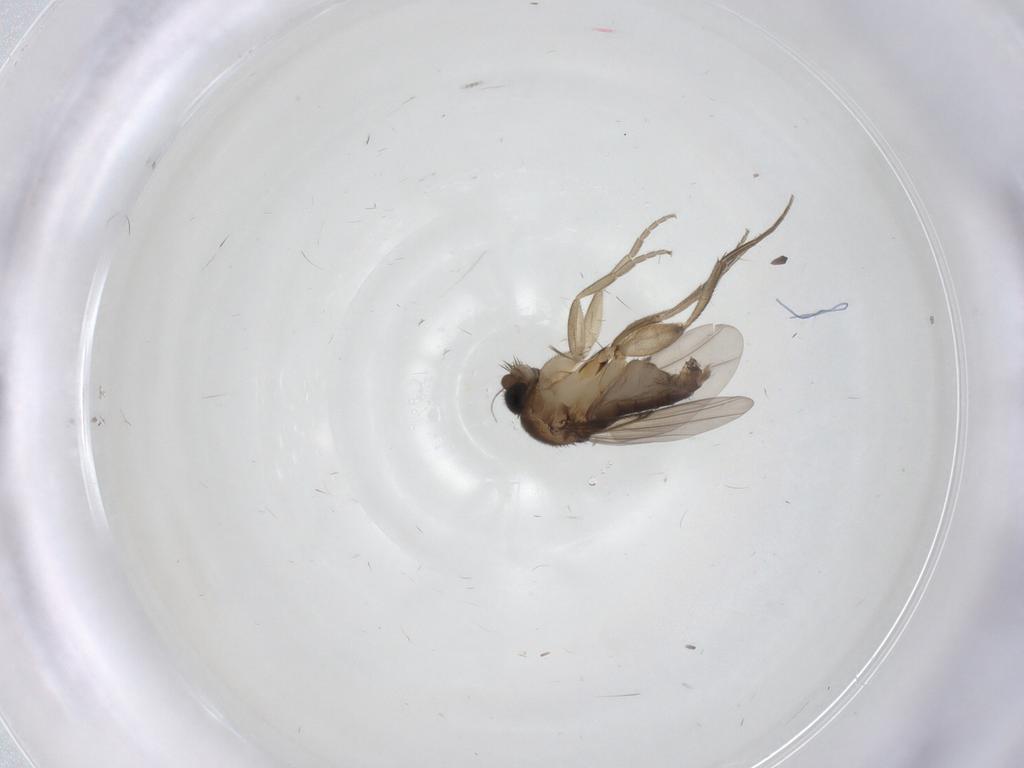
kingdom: Animalia
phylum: Arthropoda
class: Insecta
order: Diptera
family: Phoridae
